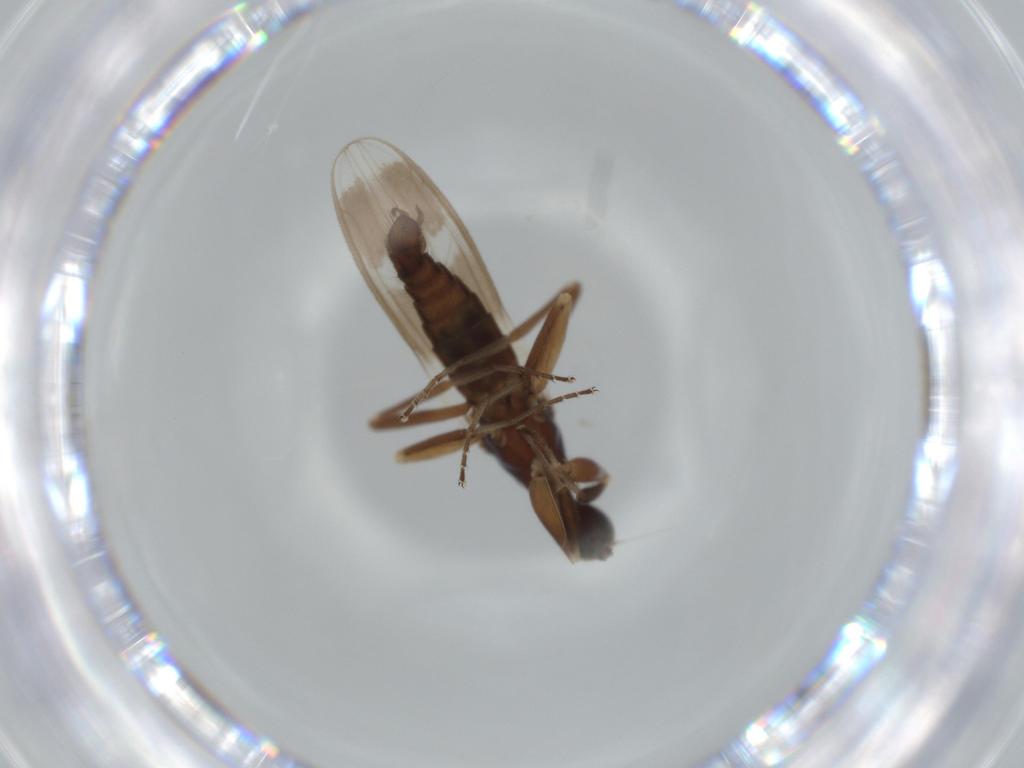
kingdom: Animalia
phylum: Arthropoda
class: Insecta
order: Diptera
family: Hybotidae
